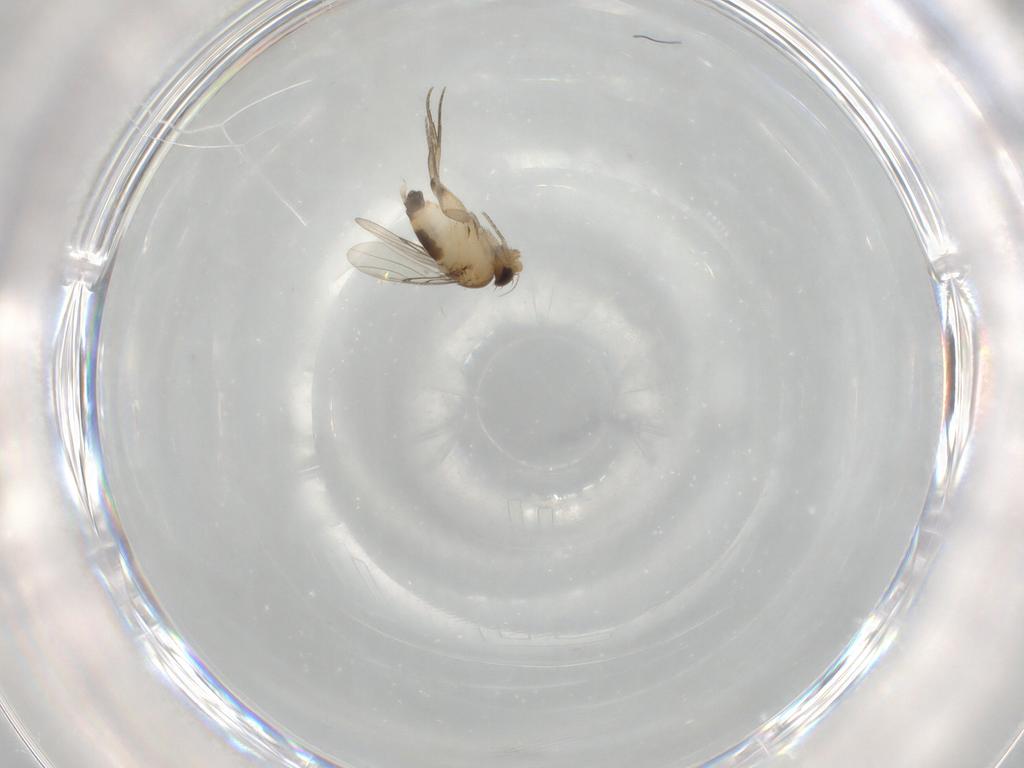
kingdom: Animalia
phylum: Arthropoda
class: Insecta
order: Diptera
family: Phoridae
